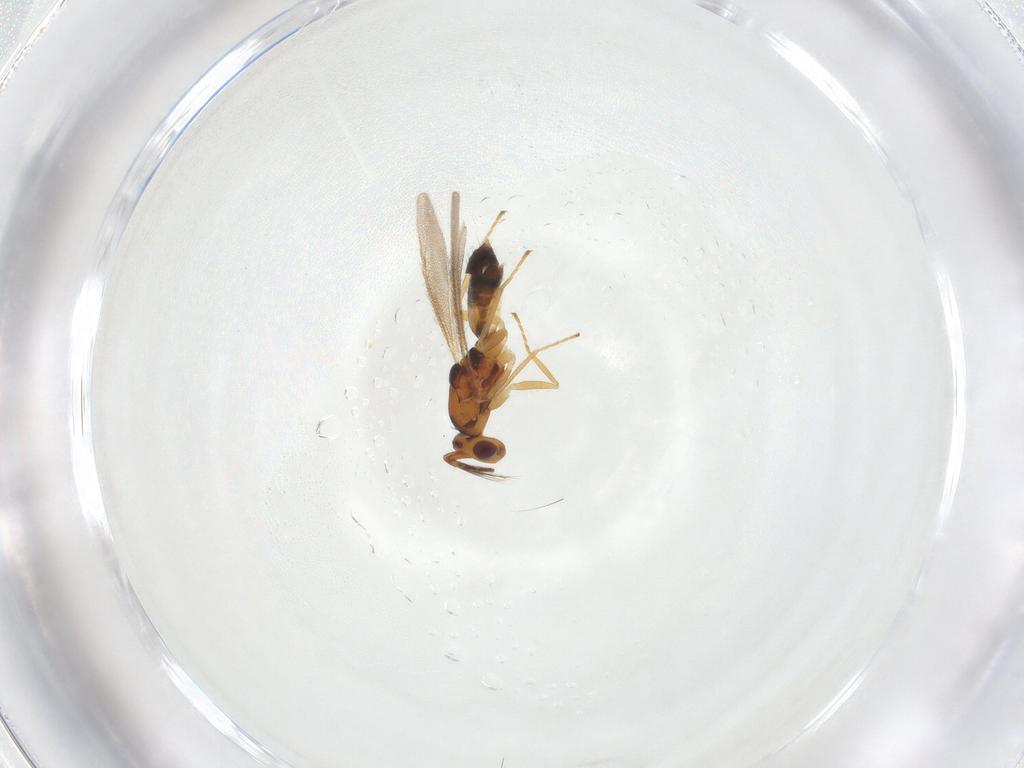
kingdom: Animalia
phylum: Arthropoda
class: Insecta
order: Hymenoptera
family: Eulophidae
